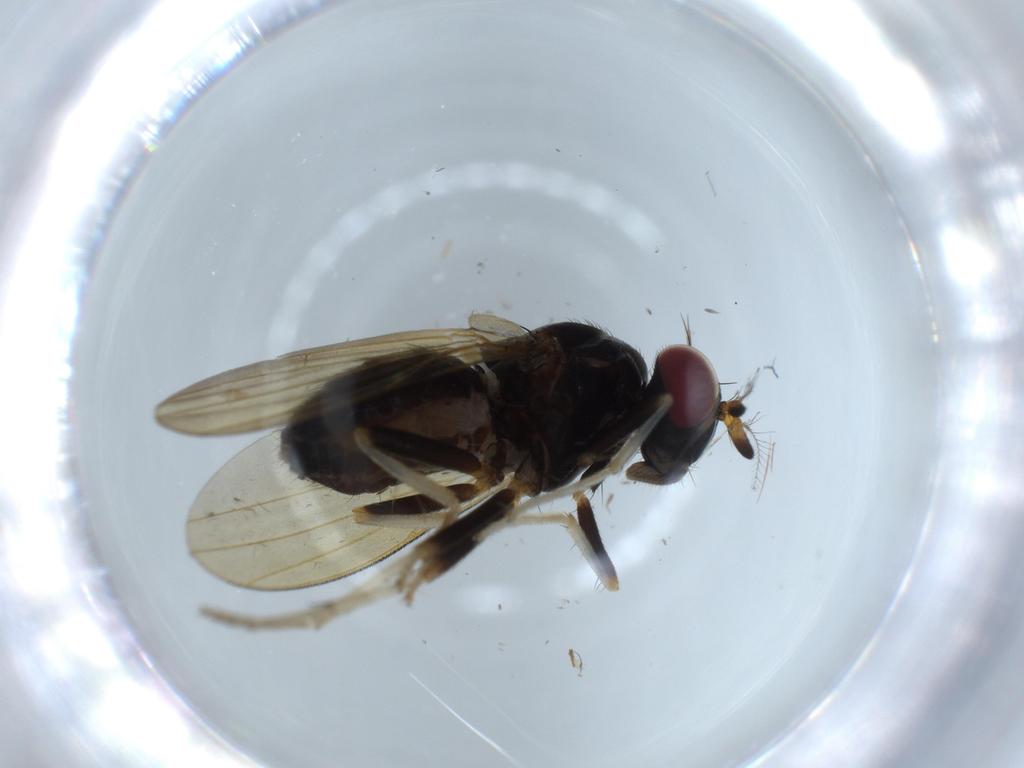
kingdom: Animalia
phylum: Arthropoda
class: Insecta
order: Diptera
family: Lauxaniidae
